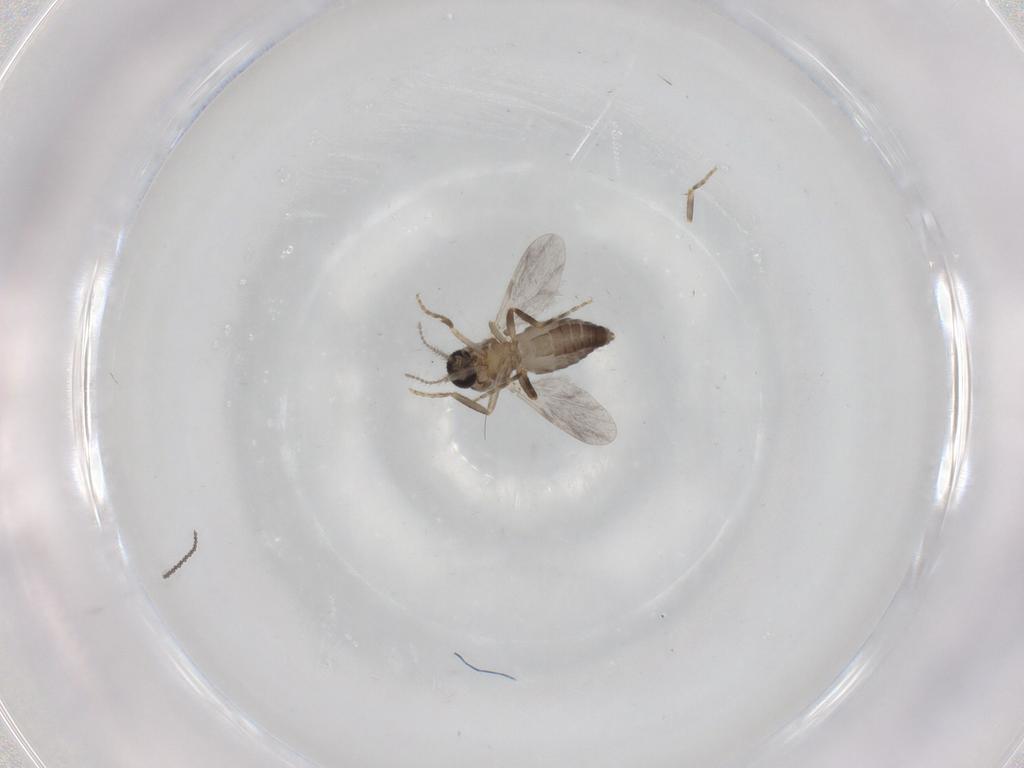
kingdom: Animalia
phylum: Arthropoda
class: Insecta
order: Diptera
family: Ceratopogonidae
